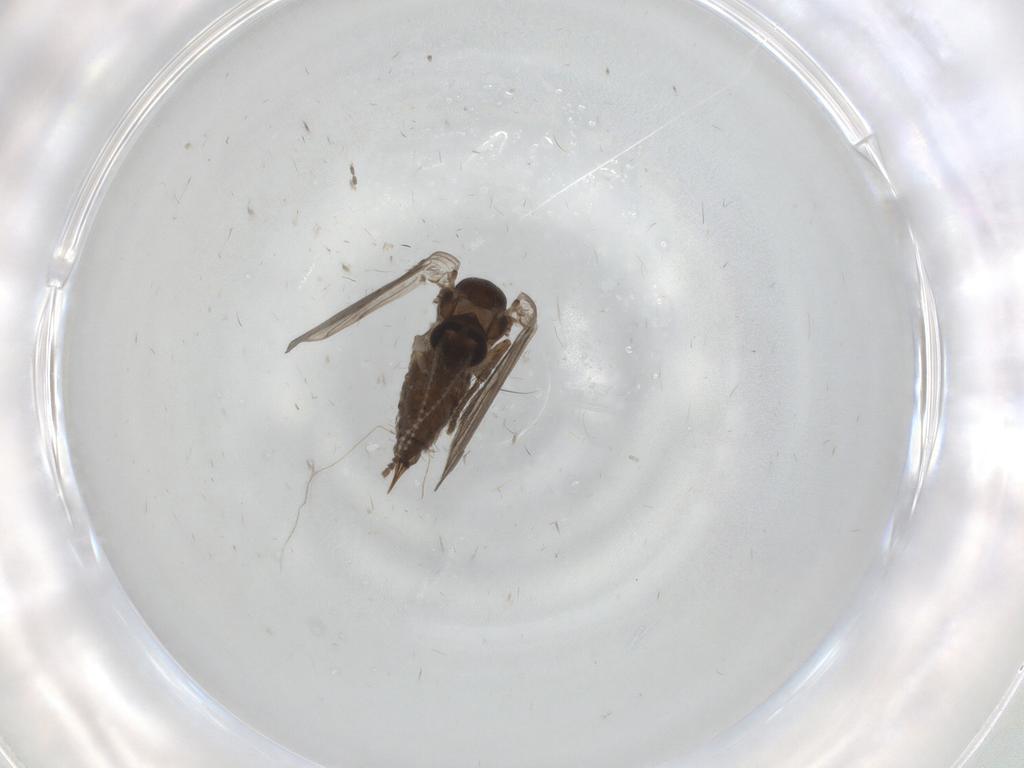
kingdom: Animalia
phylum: Arthropoda
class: Insecta
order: Diptera
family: Psychodidae
